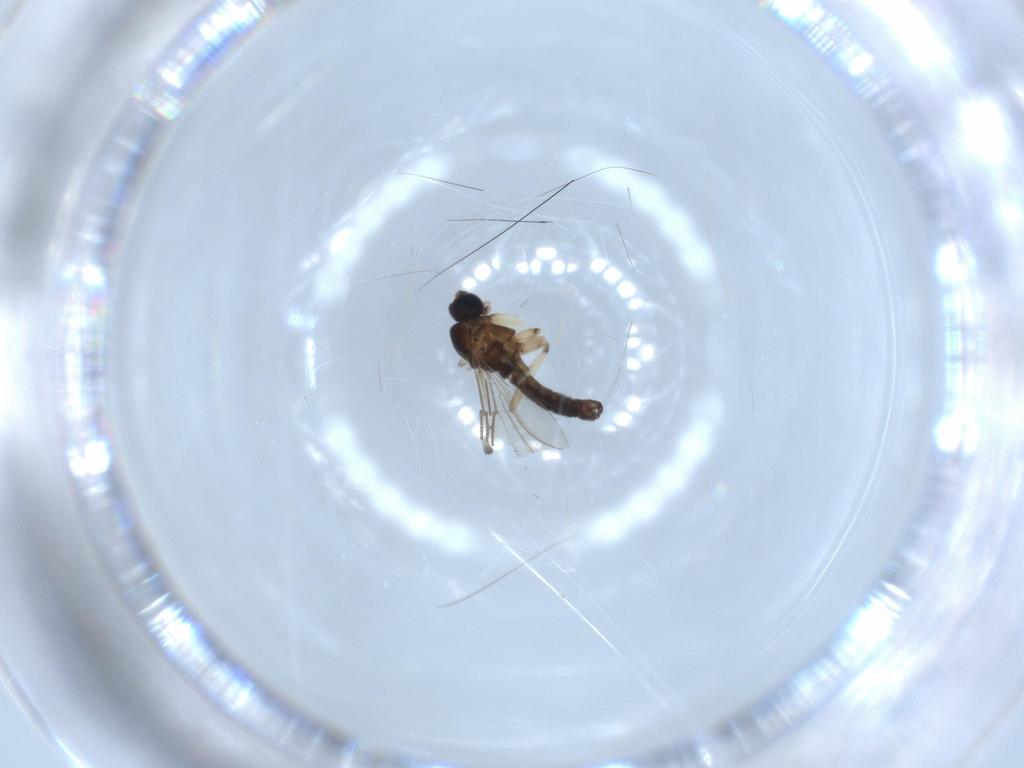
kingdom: Animalia
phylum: Arthropoda
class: Insecta
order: Diptera
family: Sciaridae
